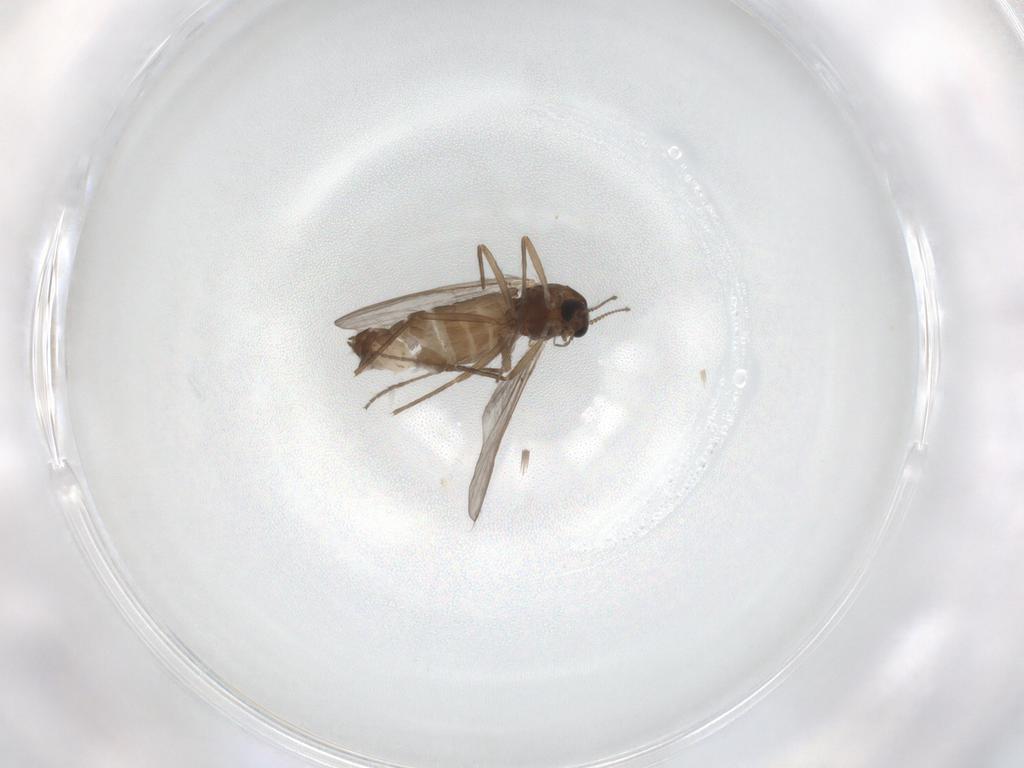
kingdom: Animalia
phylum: Arthropoda
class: Insecta
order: Diptera
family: Chironomidae
